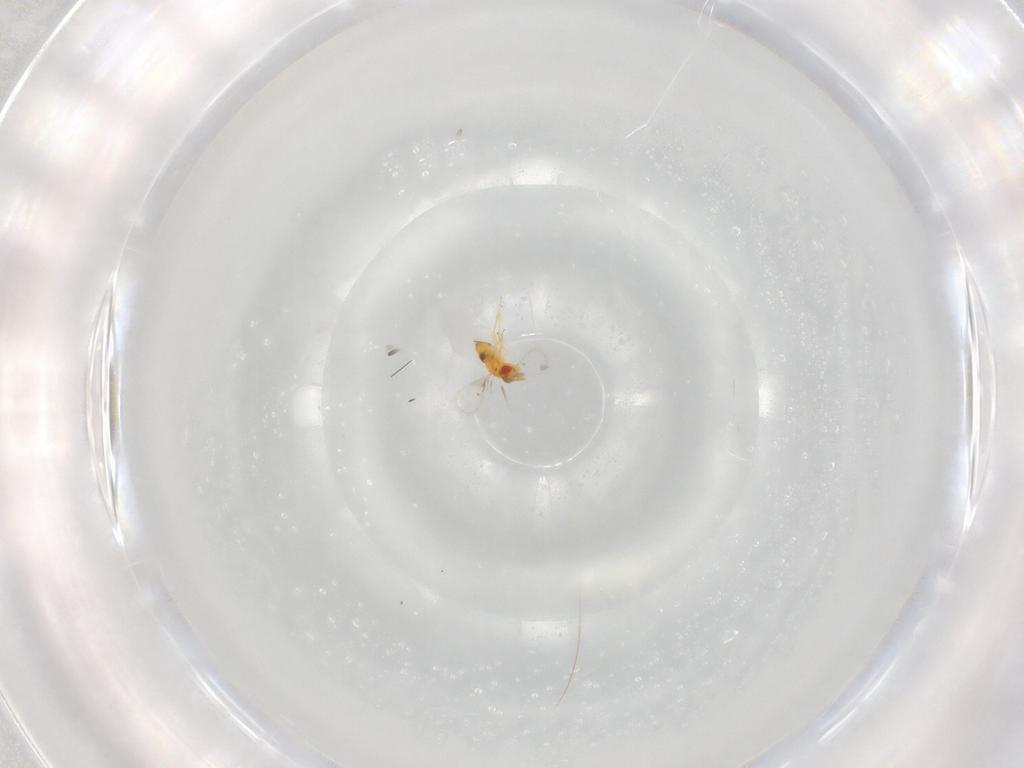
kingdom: Animalia
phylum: Arthropoda
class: Insecta
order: Hymenoptera
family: Trichogrammatidae
